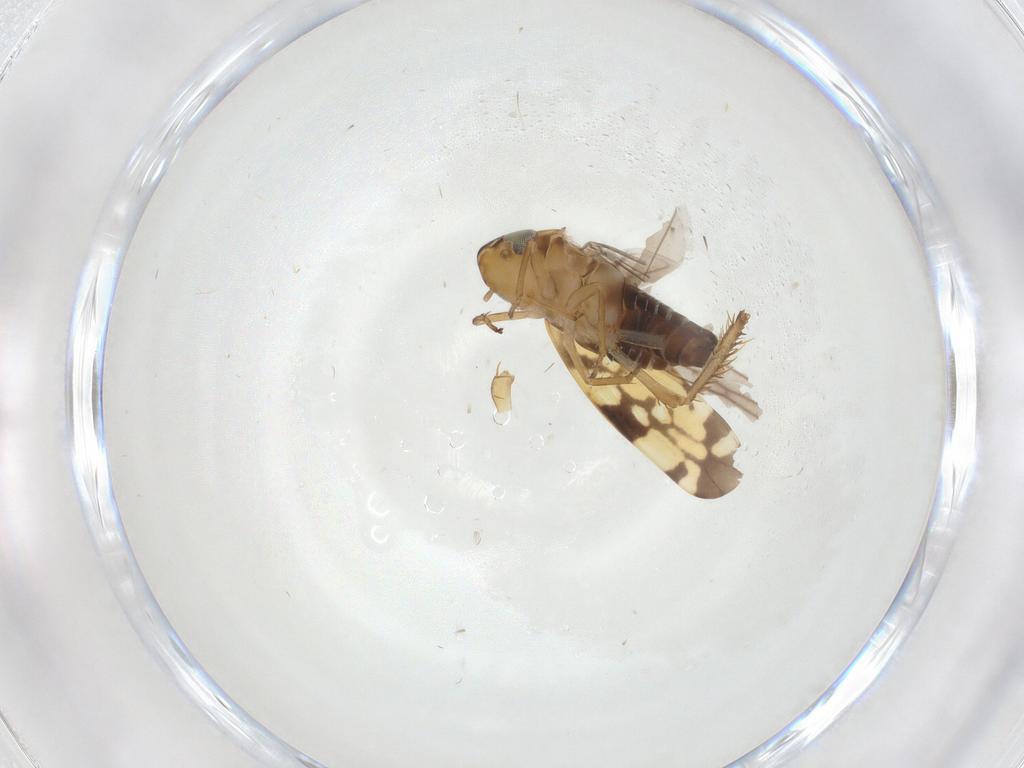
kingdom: Animalia
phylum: Arthropoda
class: Insecta
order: Hemiptera
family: Cicadellidae
